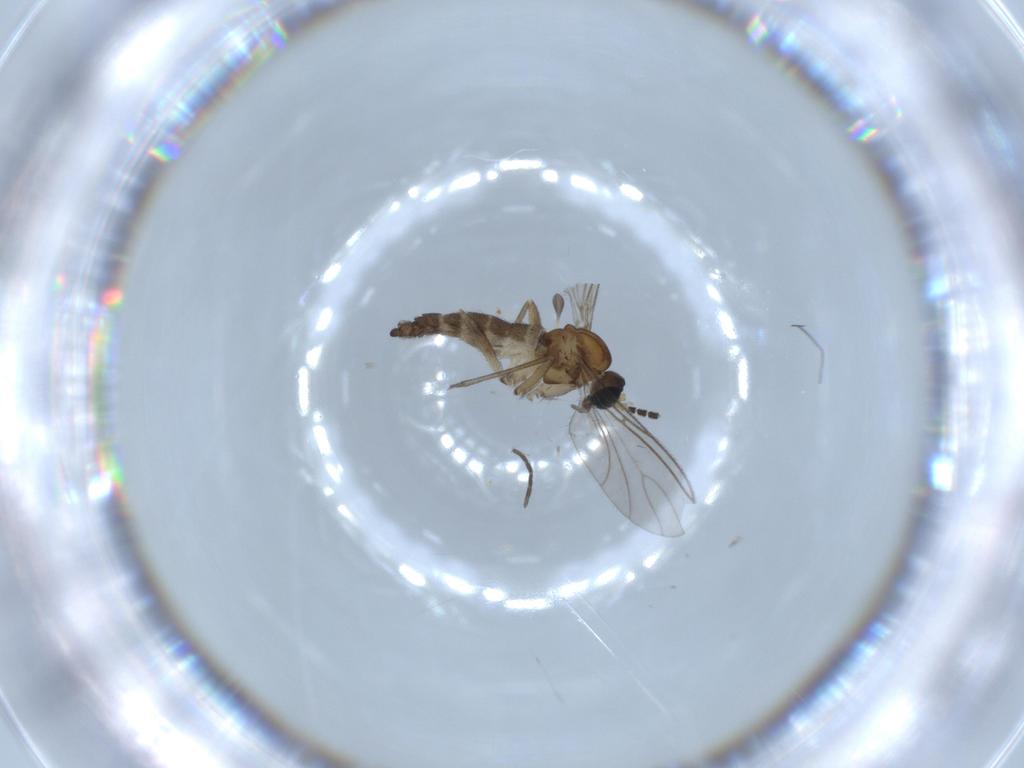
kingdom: Animalia
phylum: Arthropoda
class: Insecta
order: Diptera
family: Sciaridae
